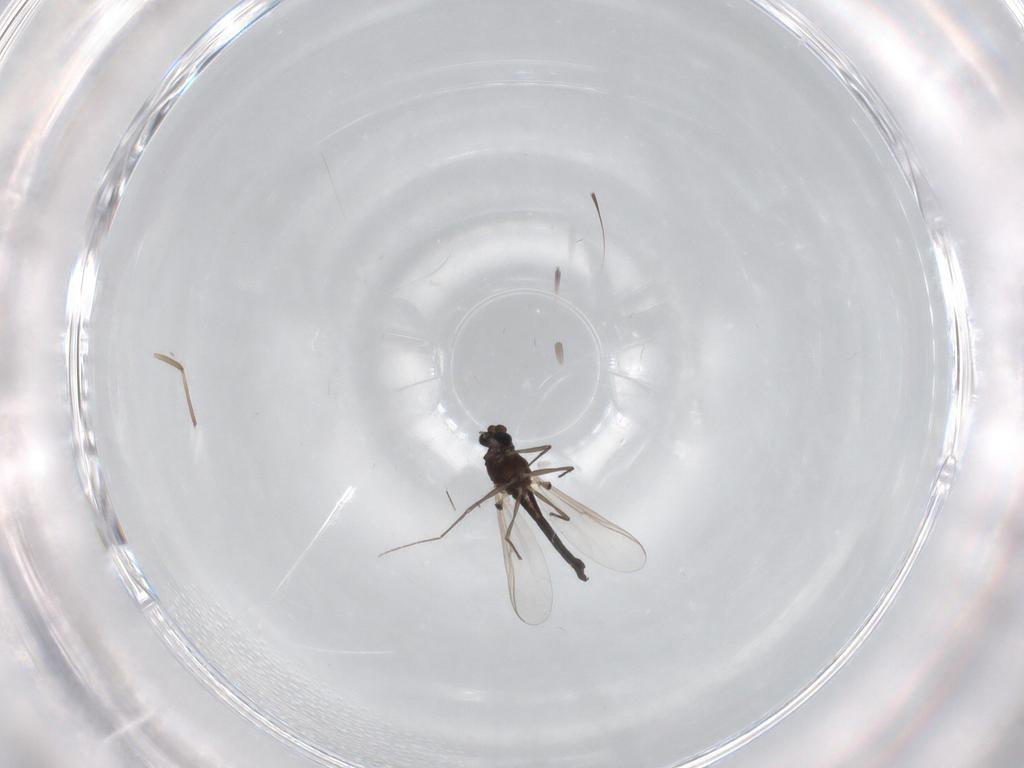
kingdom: Animalia
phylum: Arthropoda
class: Insecta
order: Diptera
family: Chironomidae
